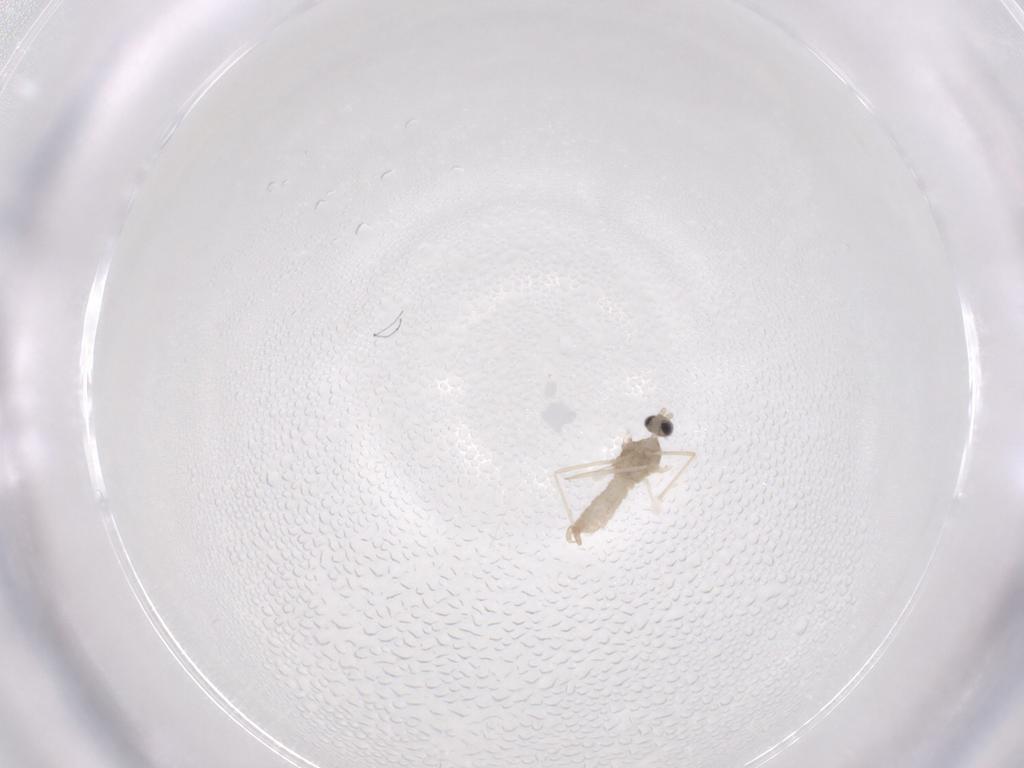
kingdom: Animalia
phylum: Arthropoda
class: Insecta
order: Diptera
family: Cecidomyiidae
